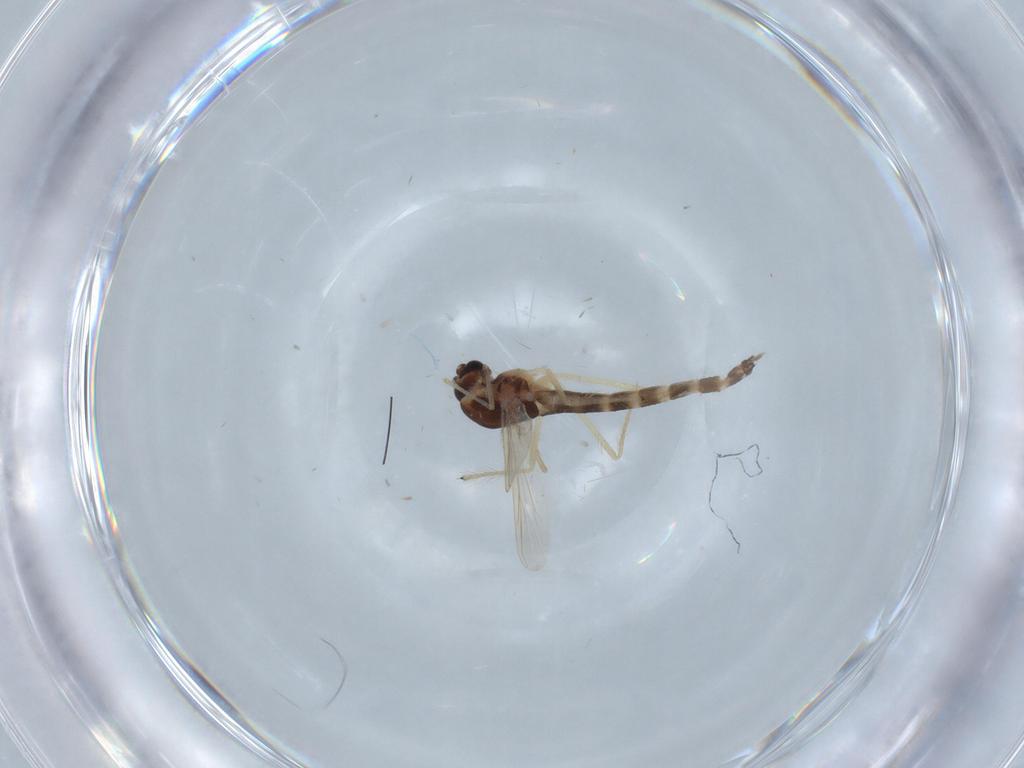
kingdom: Animalia
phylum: Arthropoda
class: Insecta
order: Diptera
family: Chironomidae
